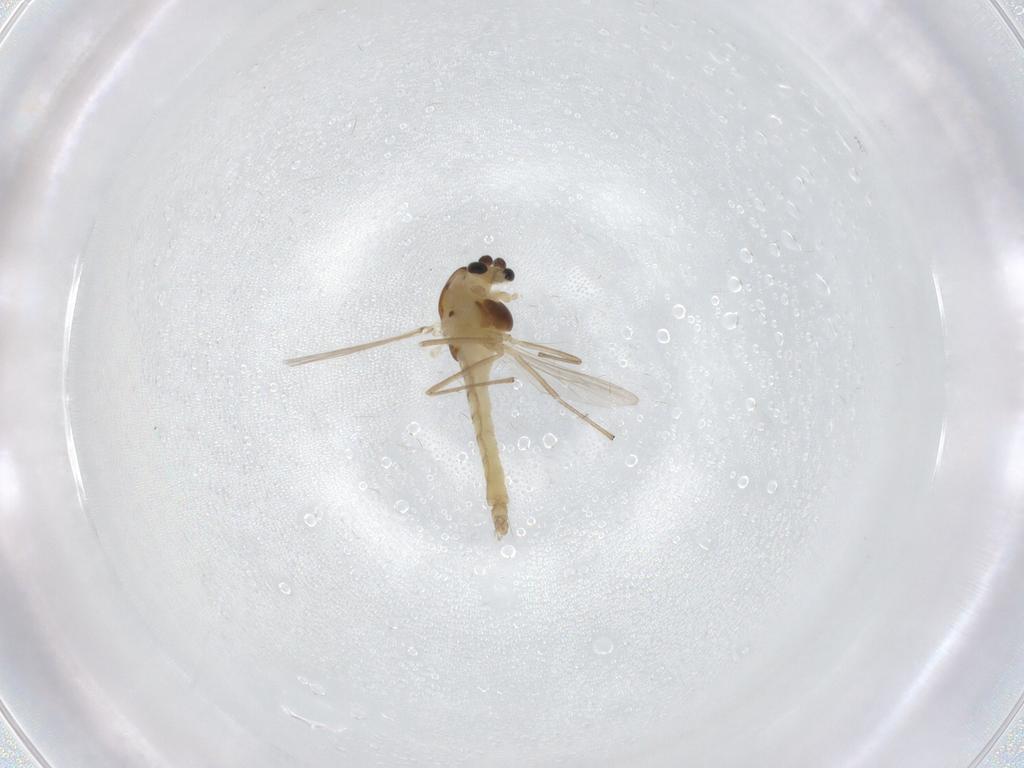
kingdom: Animalia
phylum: Arthropoda
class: Insecta
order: Diptera
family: Chironomidae
